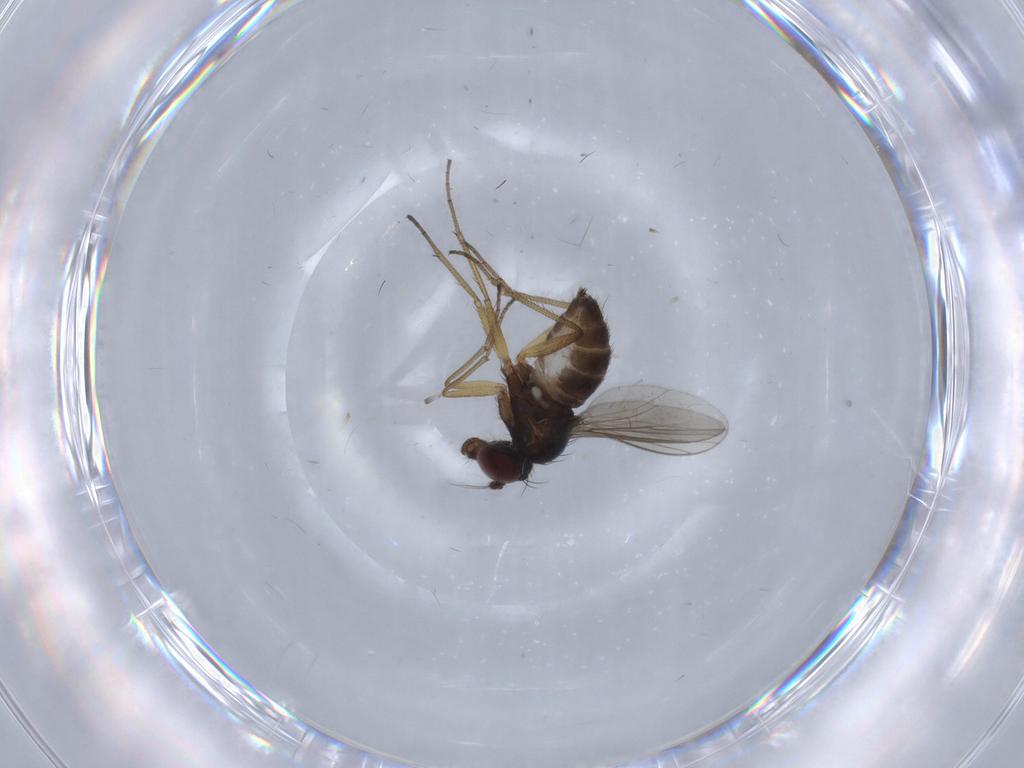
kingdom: Animalia
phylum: Arthropoda
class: Insecta
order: Diptera
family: Dolichopodidae
